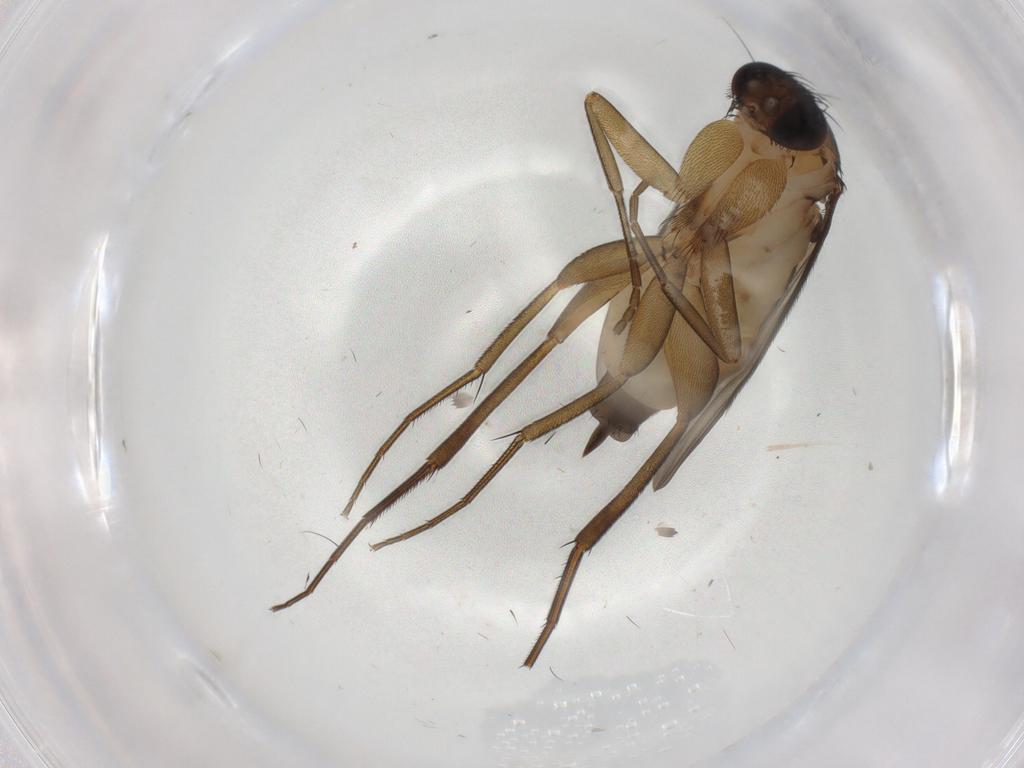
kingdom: Animalia
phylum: Arthropoda
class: Insecta
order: Diptera
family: Phoridae
